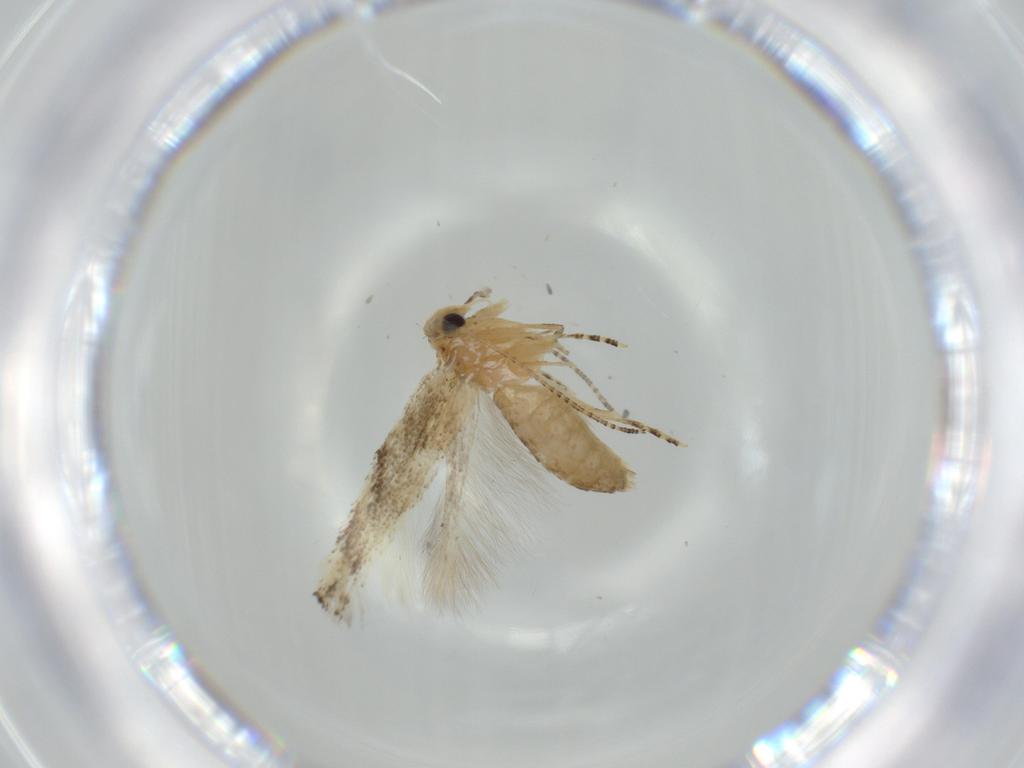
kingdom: Animalia
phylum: Arthropoda
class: Insecta
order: Lepidoptera
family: Bucculatricidae
